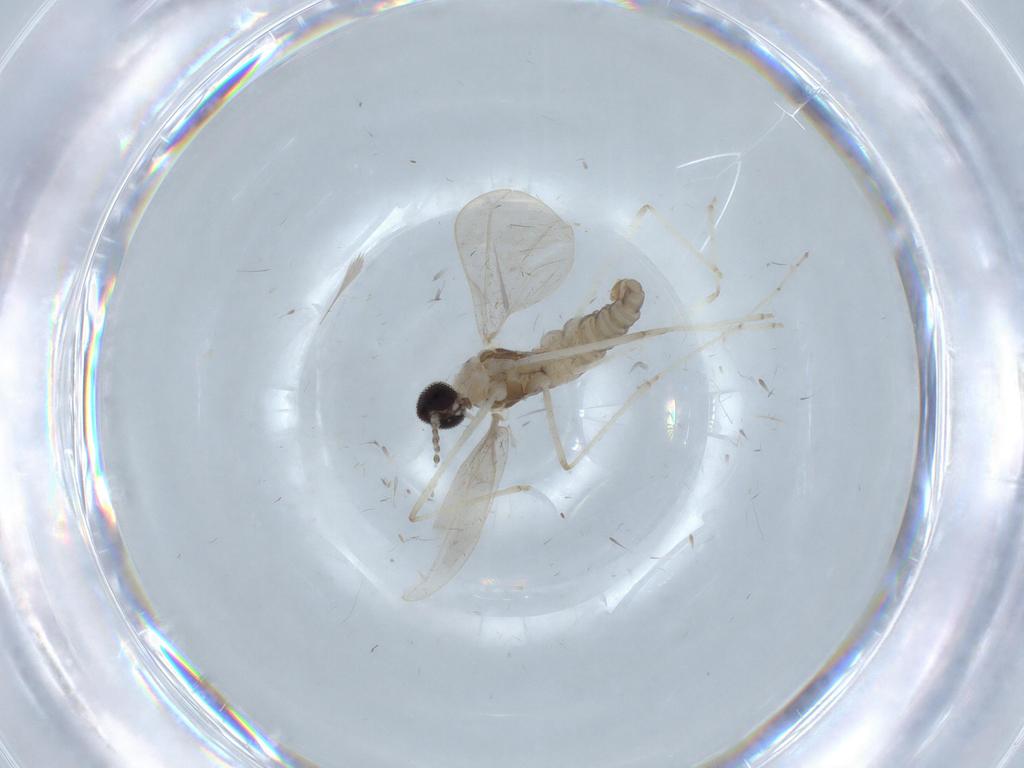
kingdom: Animalia
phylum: Arthropoda
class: Insecta
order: Diptera
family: Cecidomyiidae
